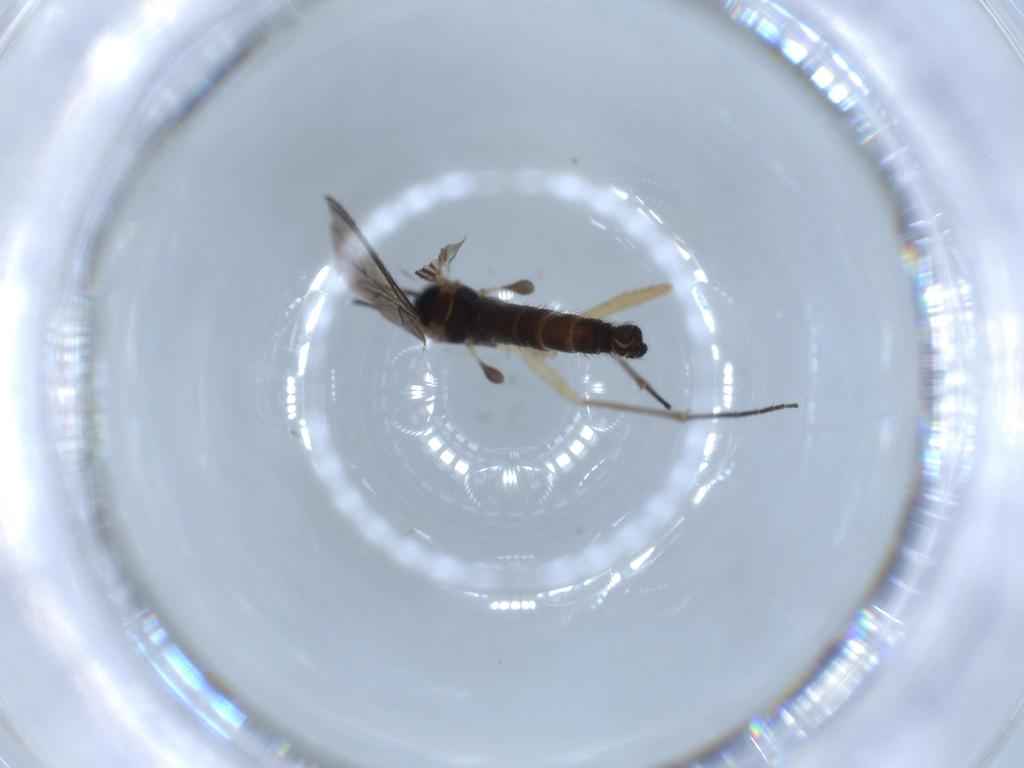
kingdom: Animalia
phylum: Arthropoda
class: Insecta
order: Diptera
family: Sciaridae
